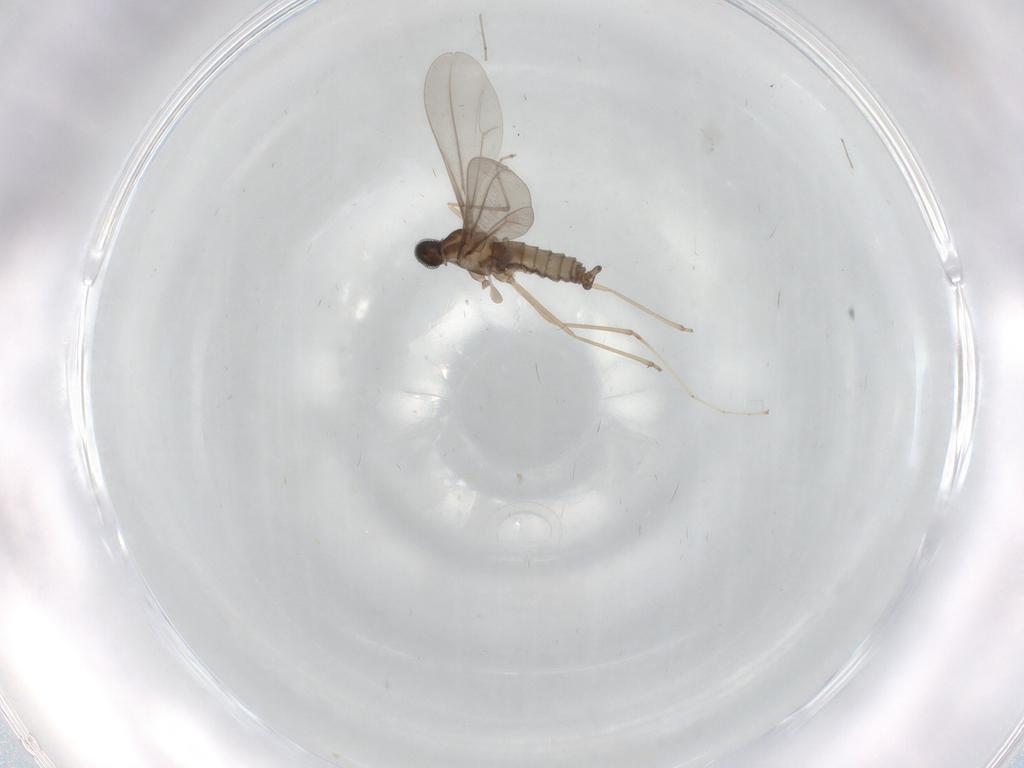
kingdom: Animalia
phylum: Arthropoda
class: Insecta
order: Diptera
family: Cecidomyiidae
